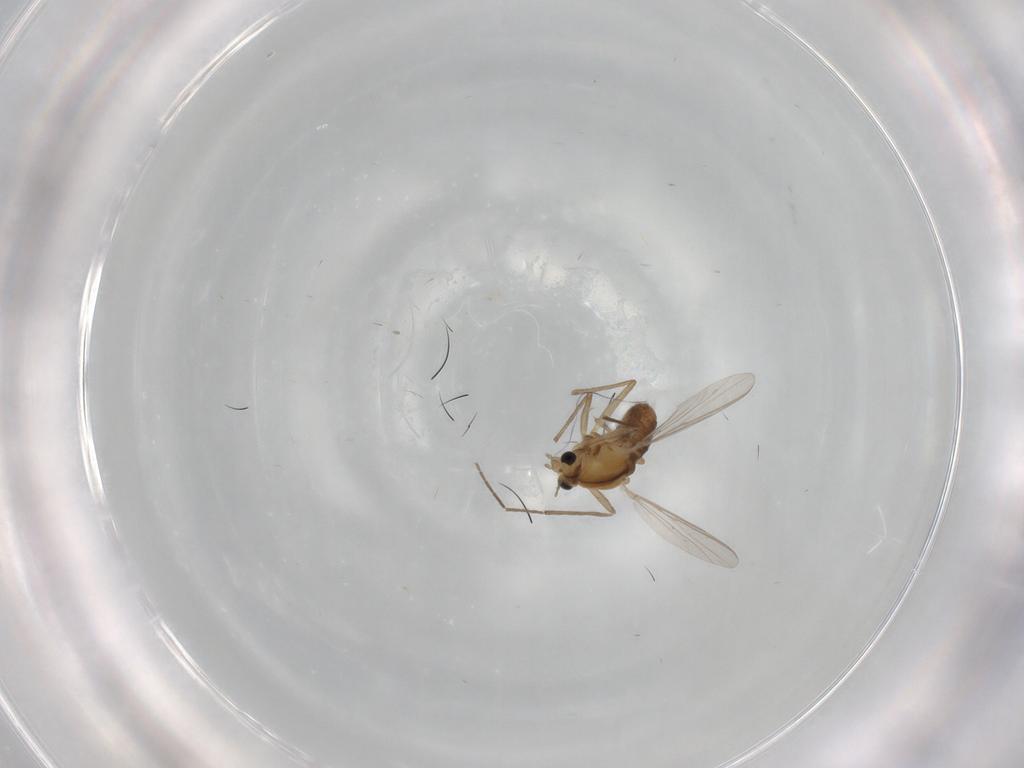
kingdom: Animalia
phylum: Arthropoda
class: Insecta
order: Diptera
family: Chironomidae
